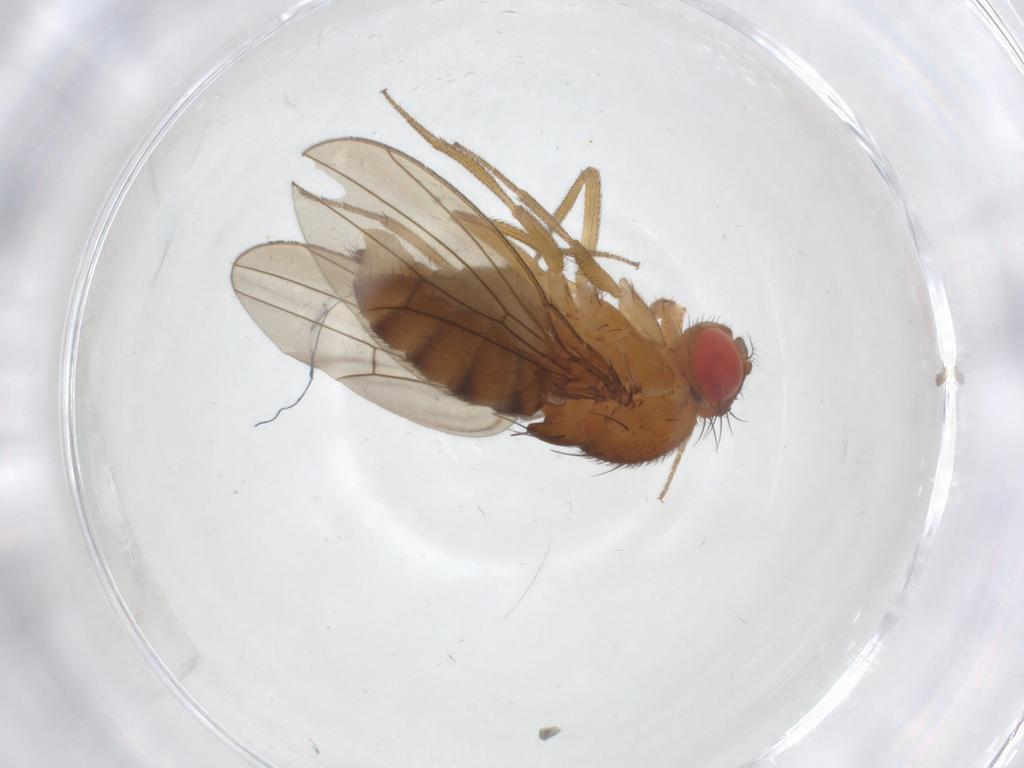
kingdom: Animalia
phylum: Arthropoda
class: Insecta
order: Diptera
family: Drosophilidae
